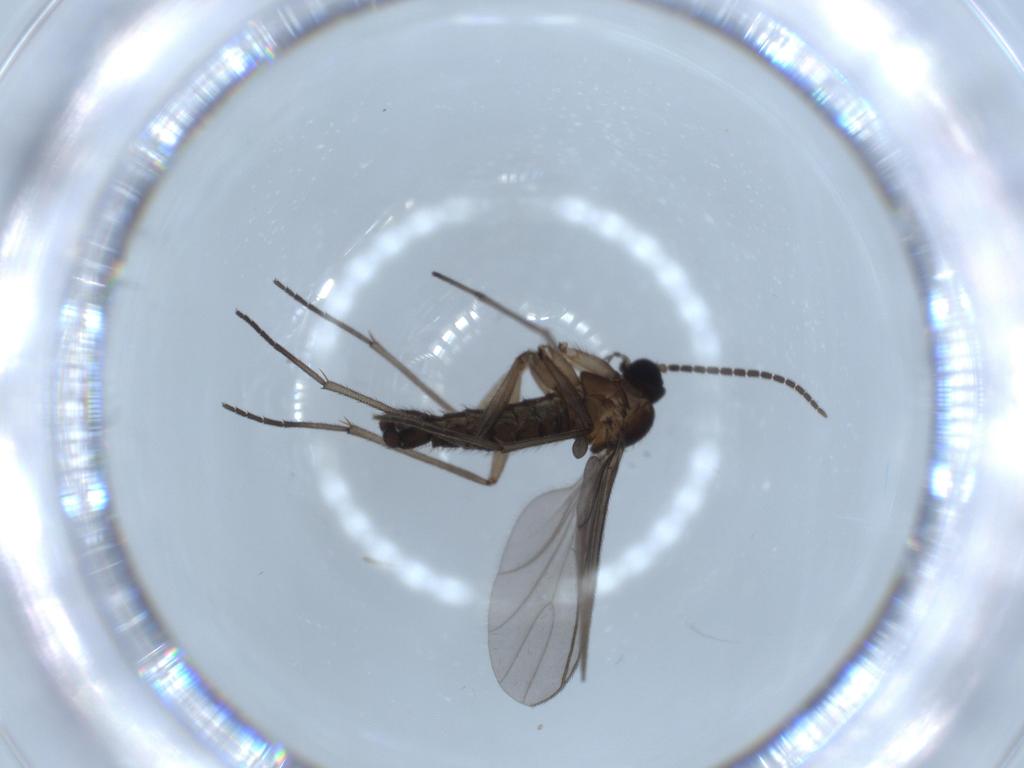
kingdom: Animalia
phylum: Arthropoda
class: Insecta
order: Diptera
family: Sciaridae
